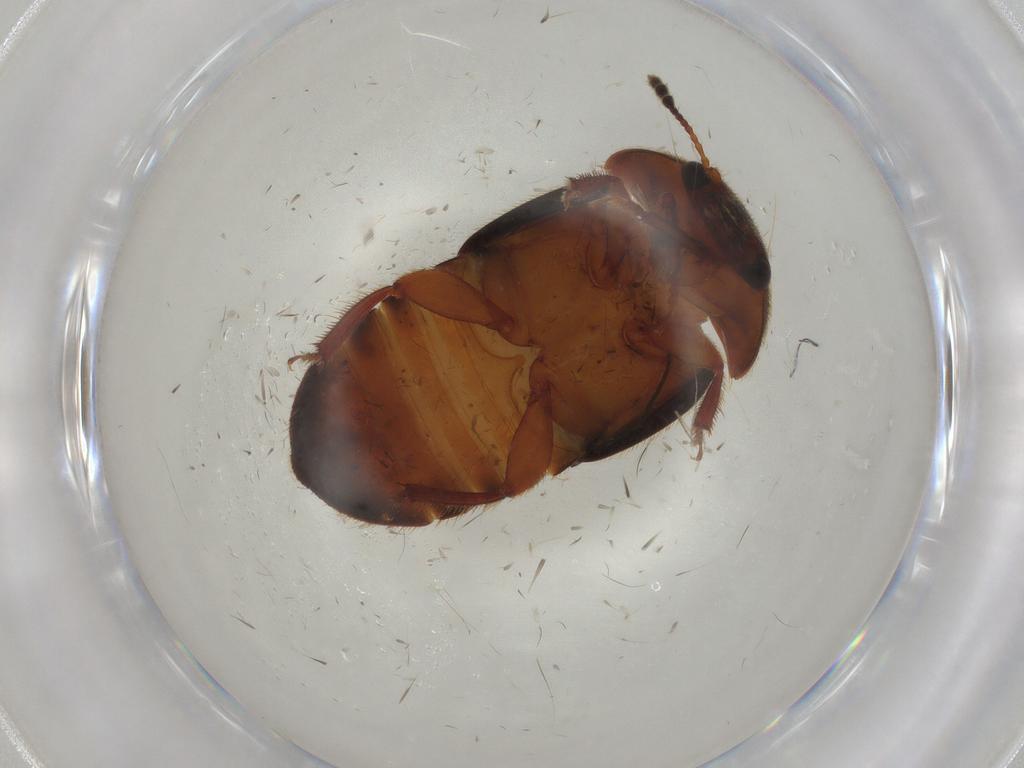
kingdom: Animalia
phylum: Arthropoda
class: Insecta
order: Coleoptera
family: Nitidulidae
